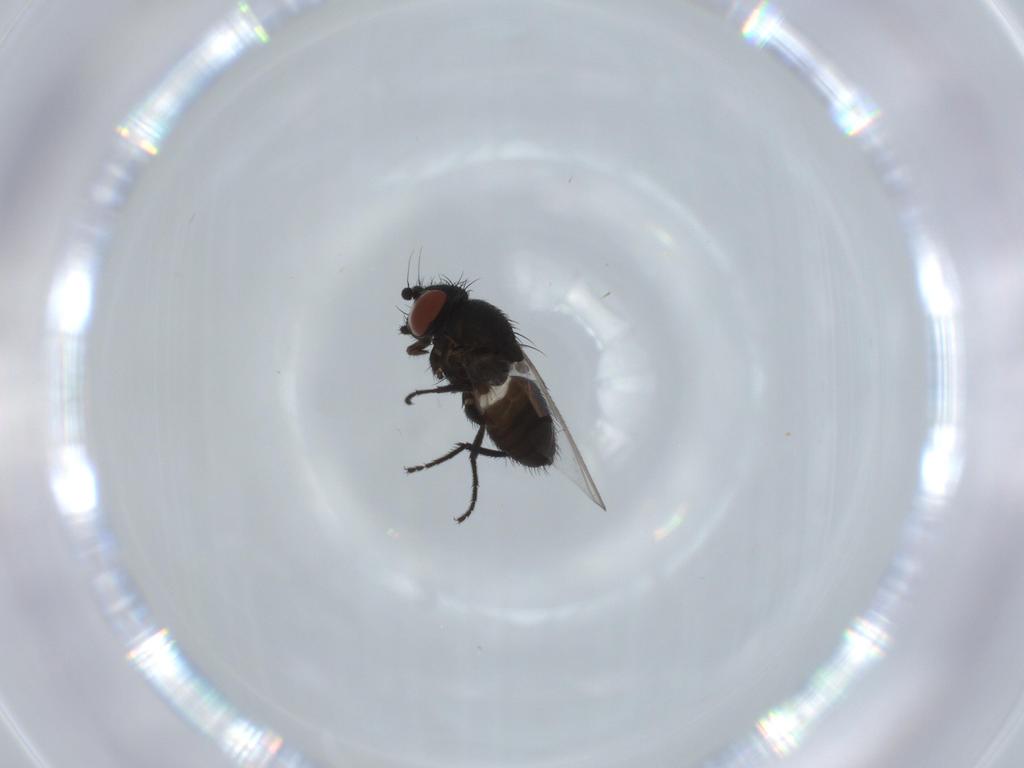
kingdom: Animalia
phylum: Arthropoda
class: Insecta
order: Diptera
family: Milichiidae
